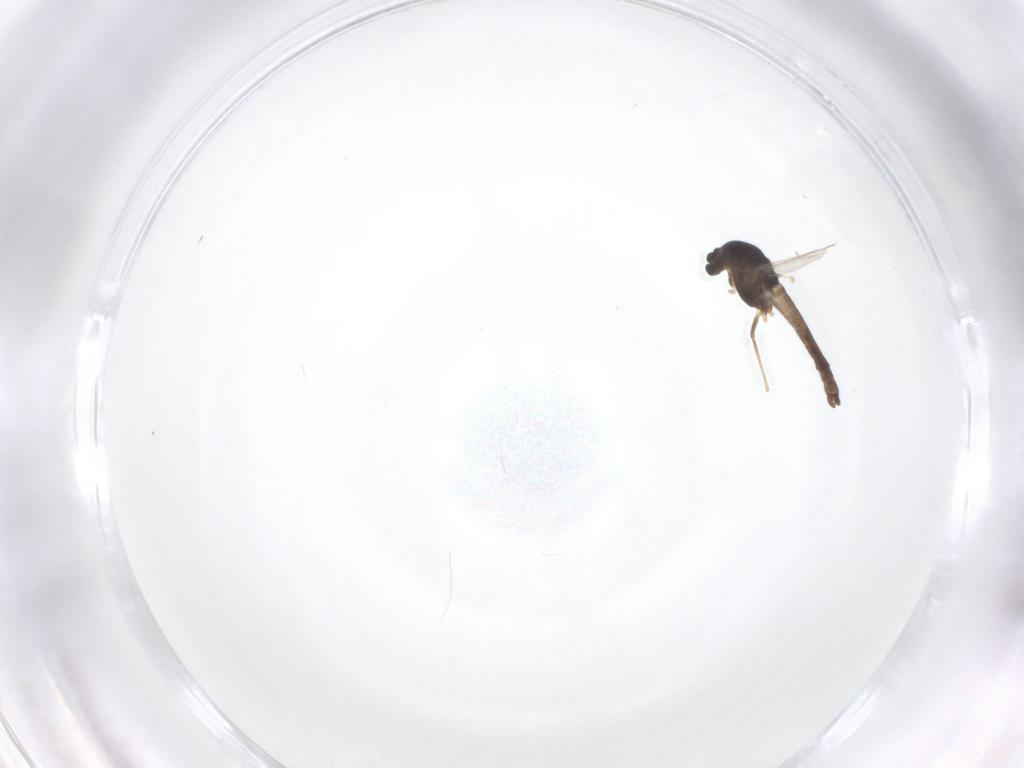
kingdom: Animalia
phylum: Arthropoda
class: Insecta
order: Diptera
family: Chironomidae
